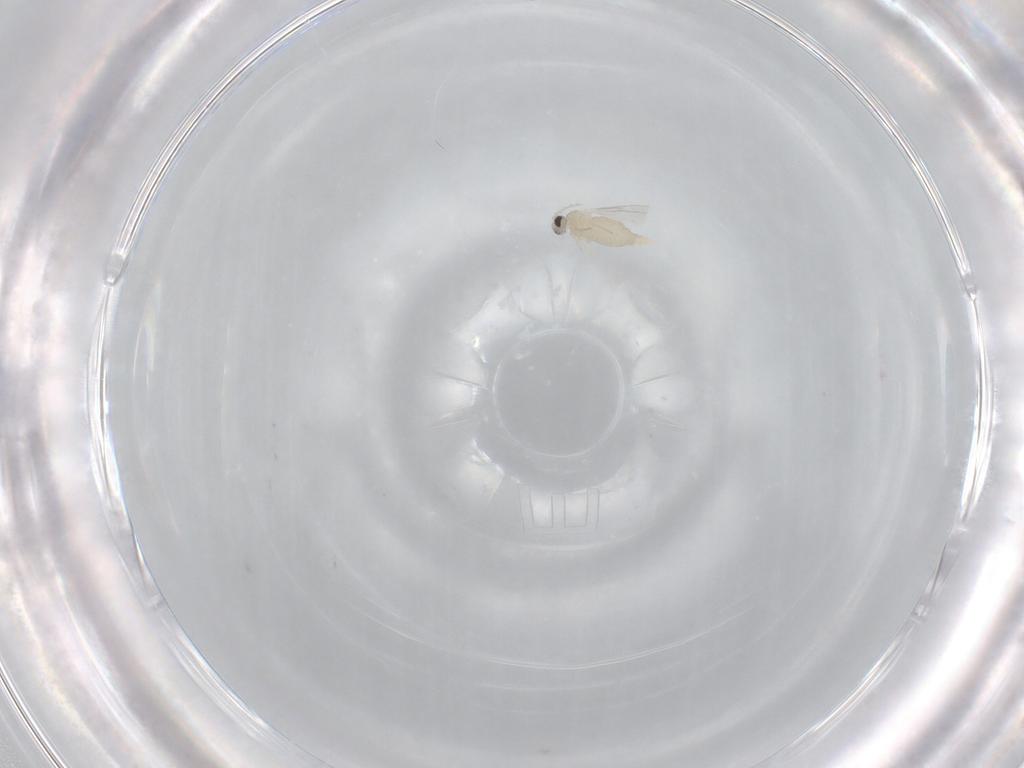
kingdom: Animalia
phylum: Arthropoda
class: Insecta
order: Diptera
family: Cecidomyiidae
